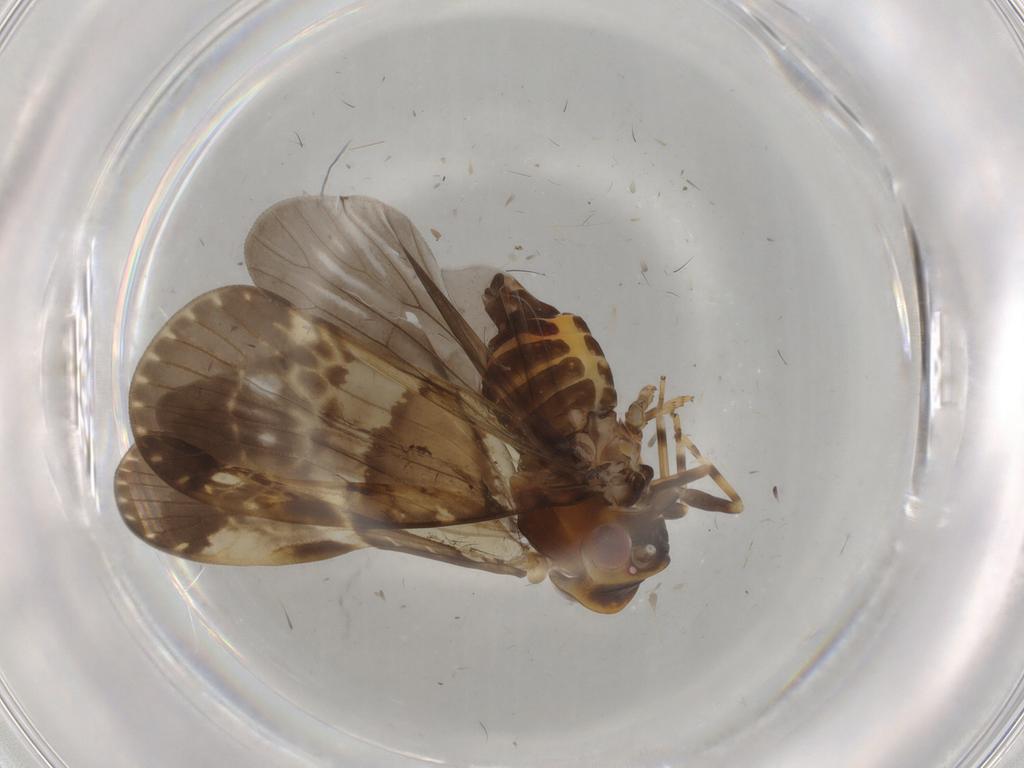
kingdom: Animalia
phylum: Arthropoda
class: Insecta
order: Hemiptera
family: Cixiidae
